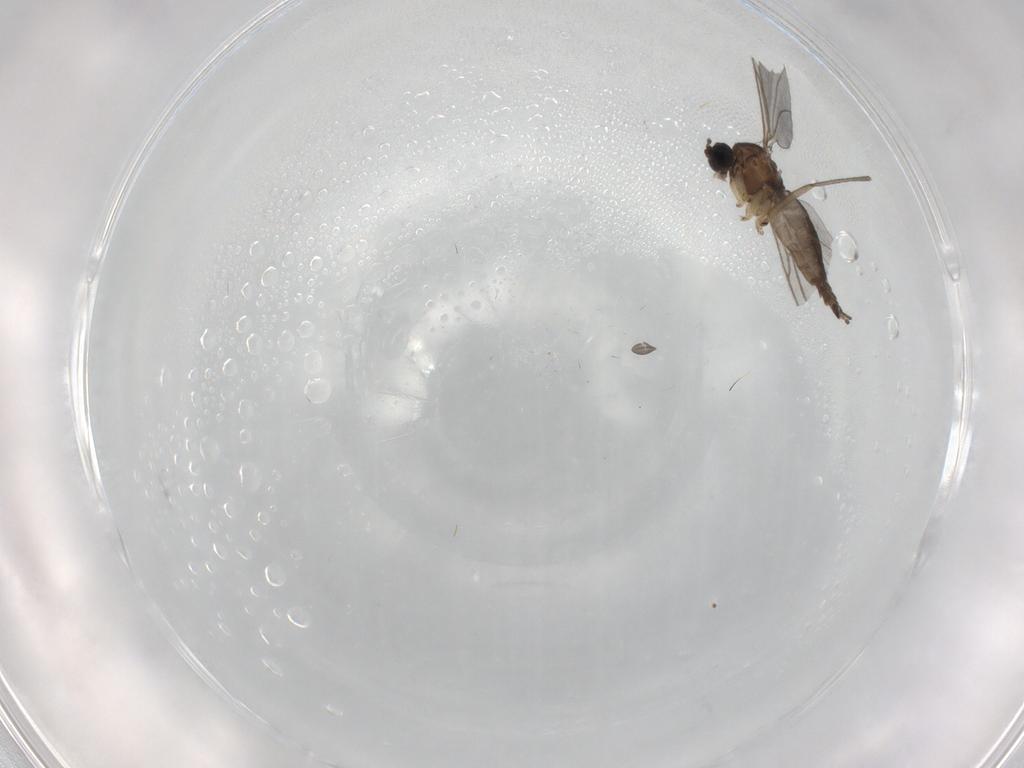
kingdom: Animalia
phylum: Arthropoda
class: Insecta
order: Diptera
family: Sciaridae
